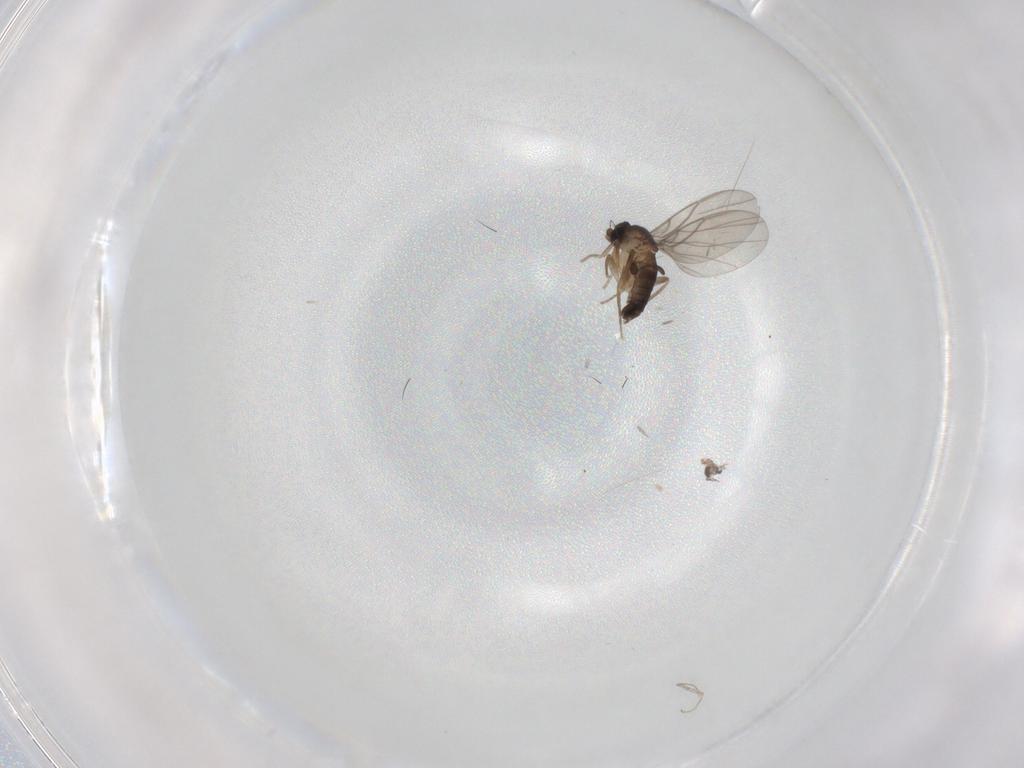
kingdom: Animalia
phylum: Arthropoda
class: Insecta
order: Diptera
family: Cecidomyiidae
